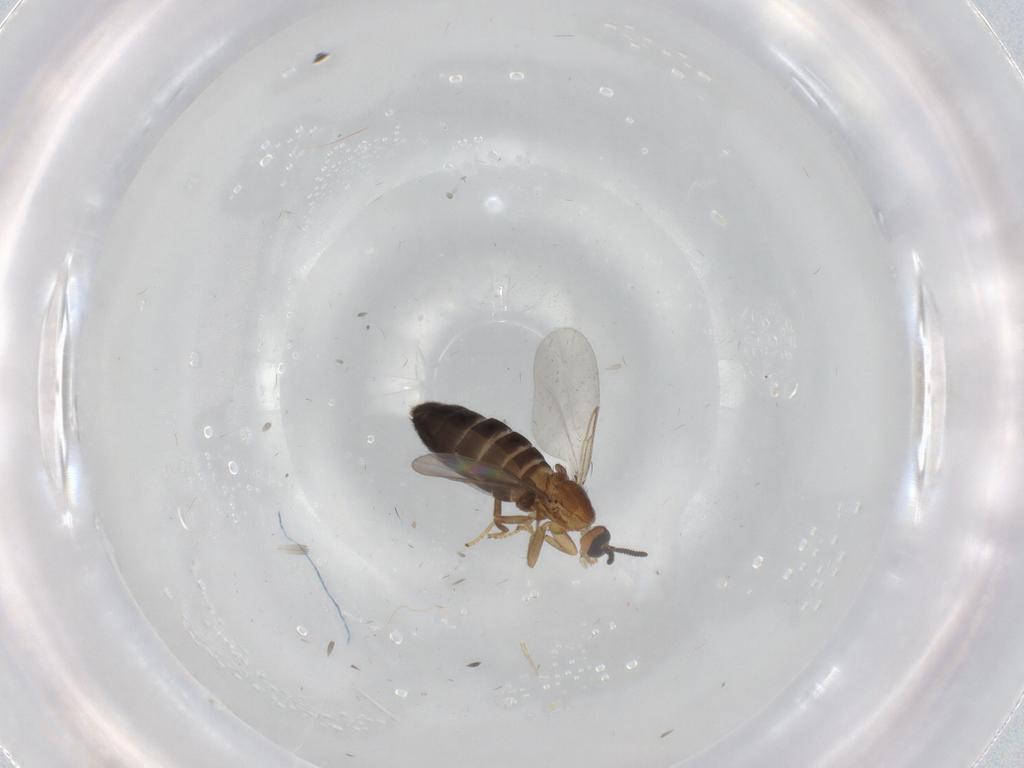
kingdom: Animalia
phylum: Arthropoda
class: Insecta
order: Diptera
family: Scatopsidae
